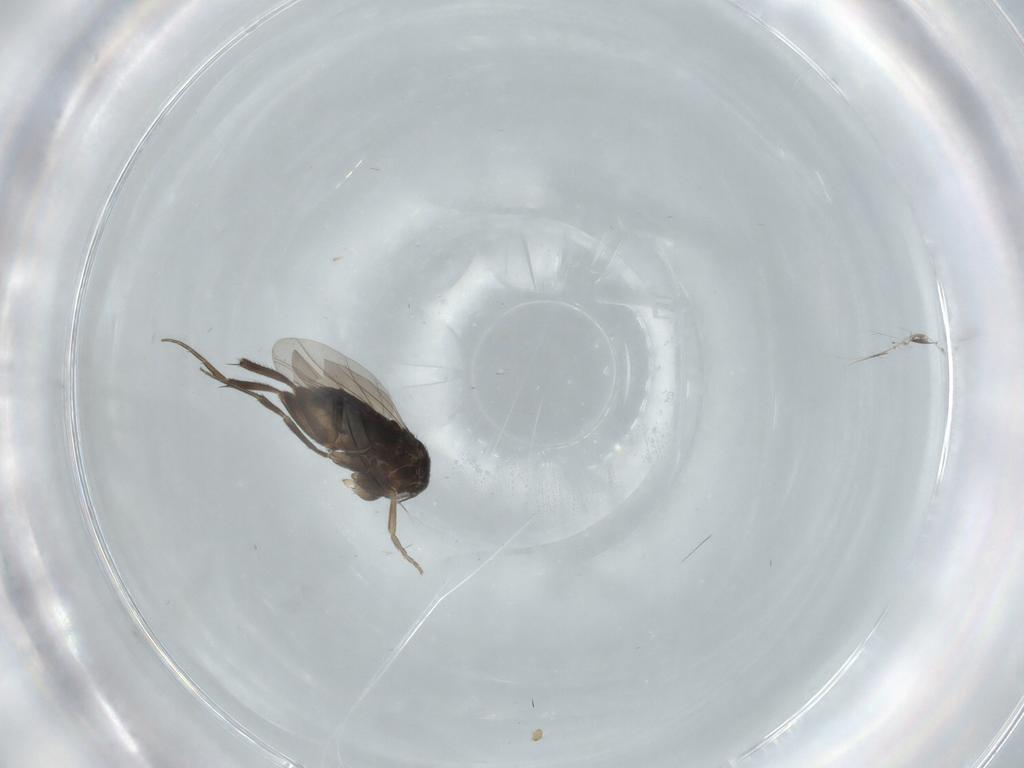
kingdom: Animalia
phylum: Arthropoda
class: Insecta
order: Diptera
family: Phoridae
